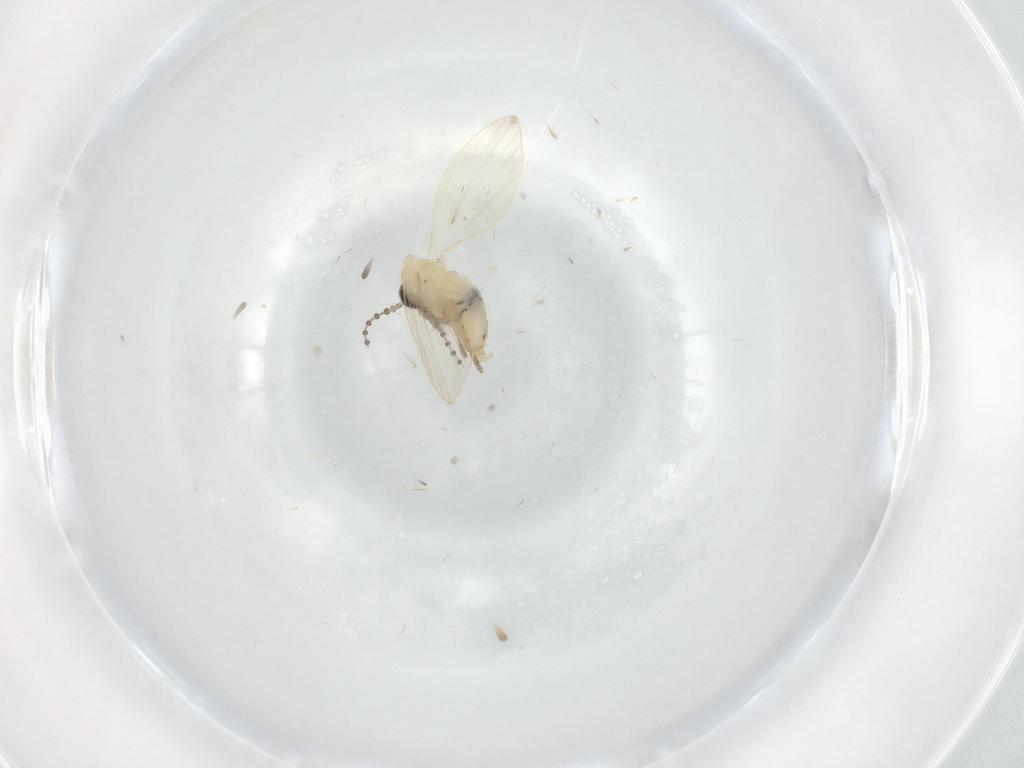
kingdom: Animalia
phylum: Arthropoda
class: Insecta
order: Diptera
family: Psychodidae
